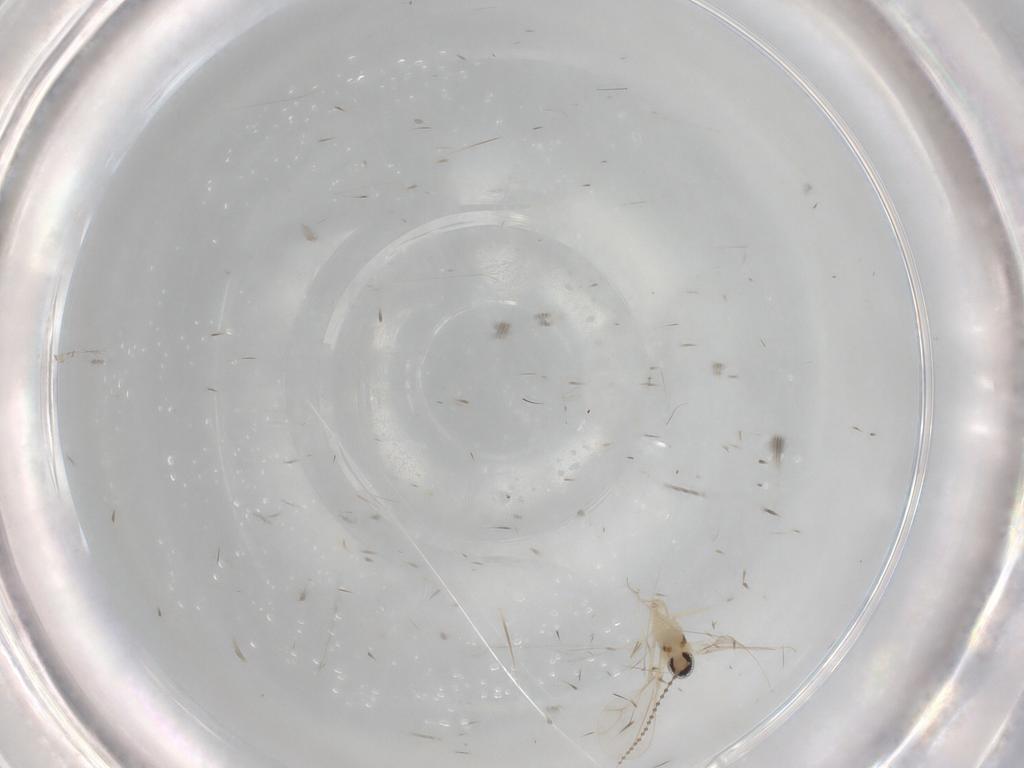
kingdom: Animalia
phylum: Arthropoda
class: Insecta
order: Diptera
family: Cecidomyiidae
